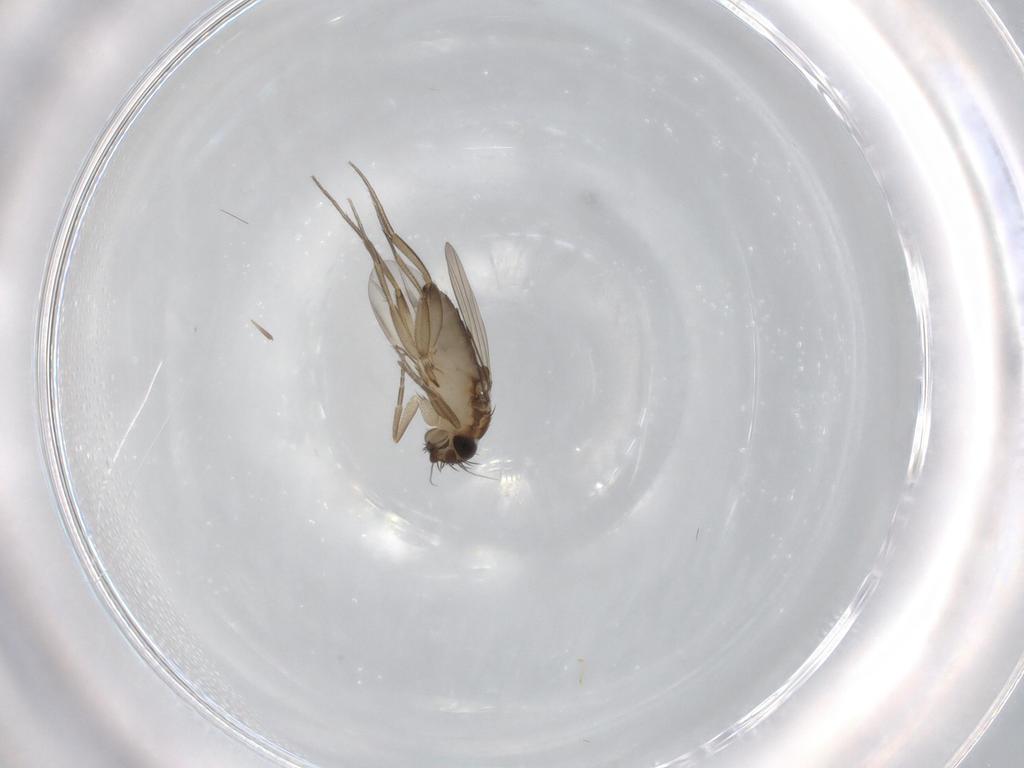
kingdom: Animalia
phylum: Arthropoda
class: Insecta
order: Diptera
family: Phoridae
